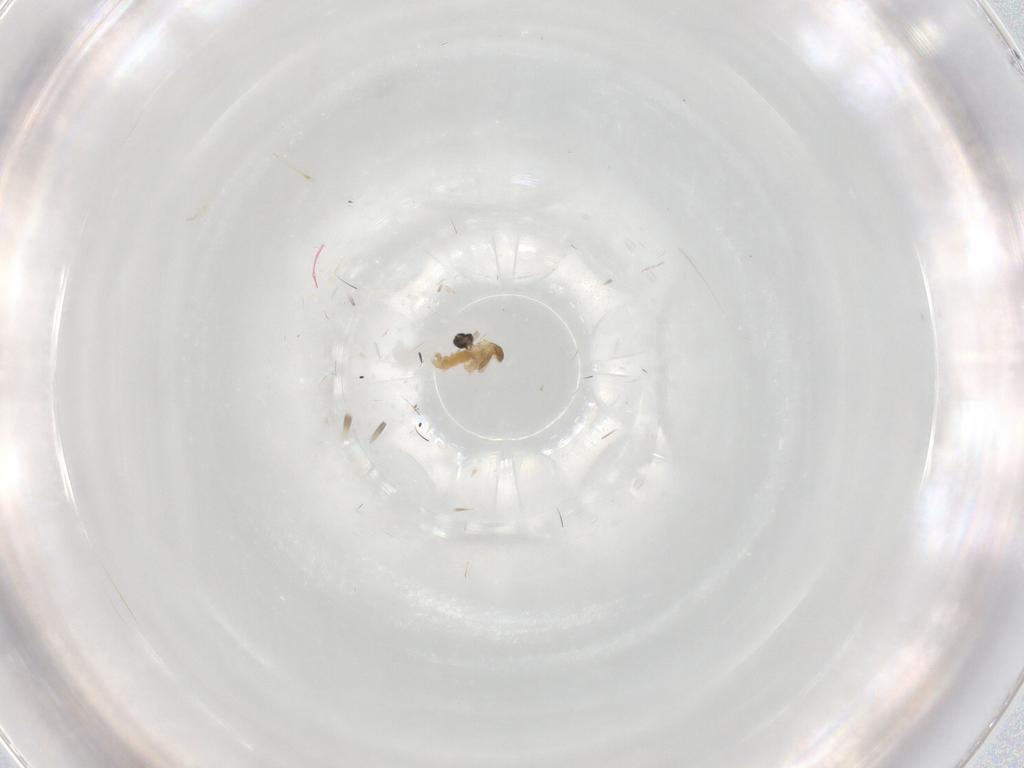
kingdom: Animalia
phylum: Arthropoda
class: Insecta
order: Diptera
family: Cecidomyiidae
